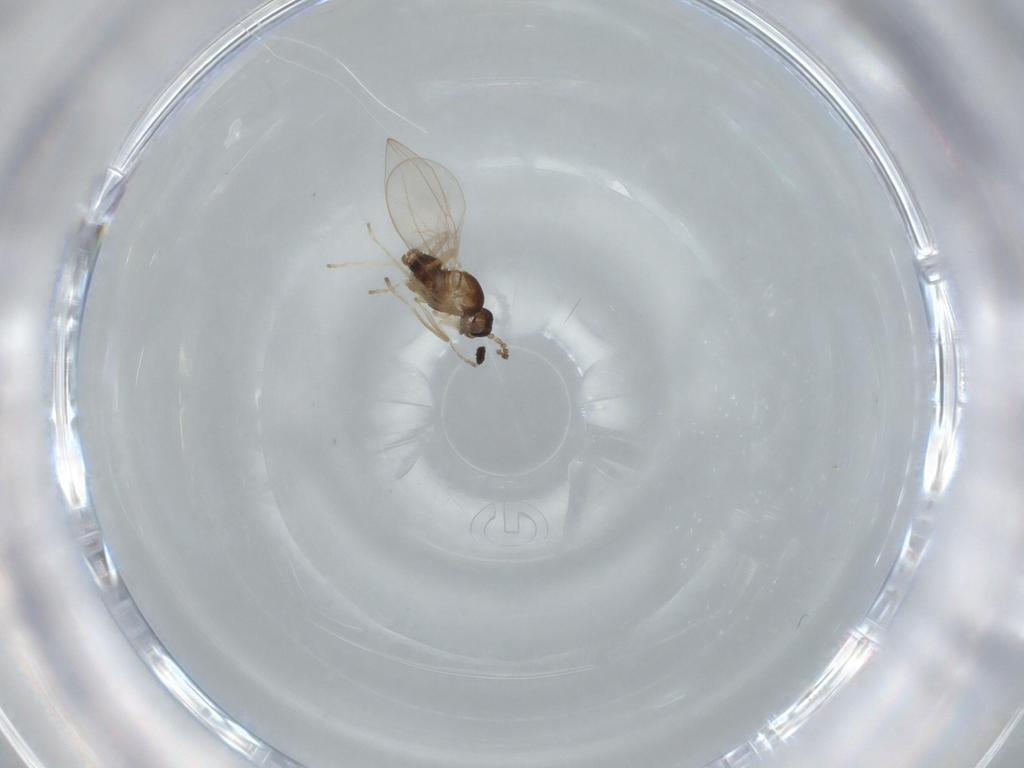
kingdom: Animalia
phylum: Arthropoda
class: Insecta
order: Diptera
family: Cecidomyiidae
